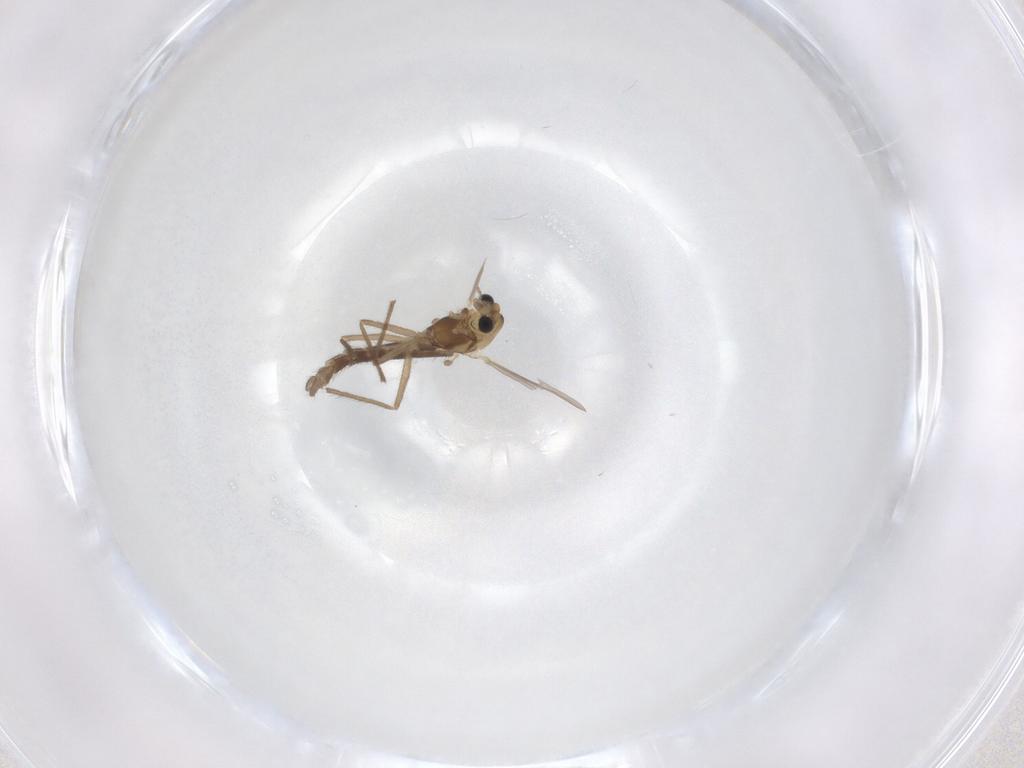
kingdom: Animalia
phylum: Arthropoda
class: Insecta
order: Diptera
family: Chironomidae
